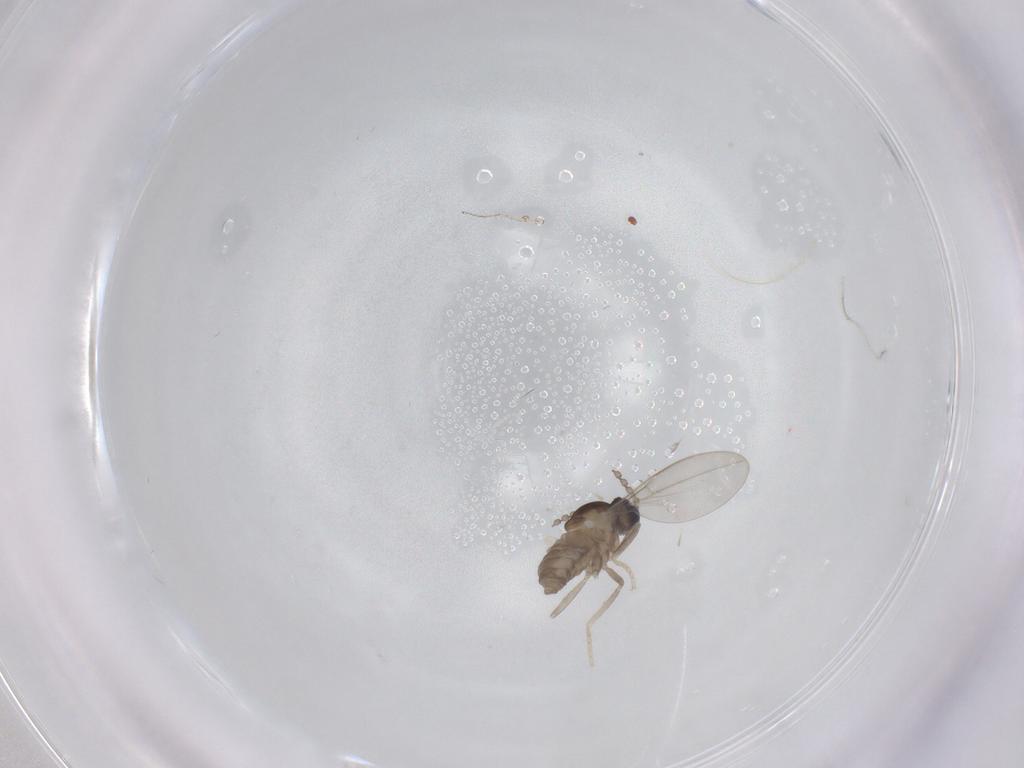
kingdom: Animalia
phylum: Arthropoda
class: Insecta
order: Diptera
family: Cecidomyiidae
